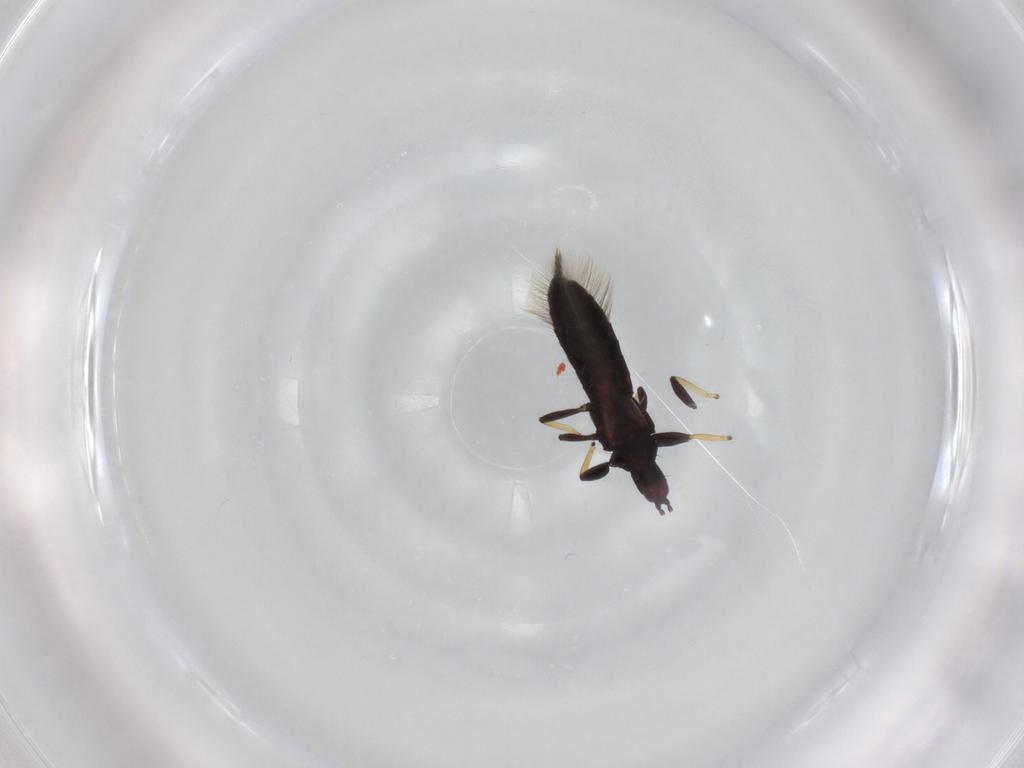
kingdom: Animalia
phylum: Arthropoda
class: Insecta
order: Thysanoptera
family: Phlaeothripidae
